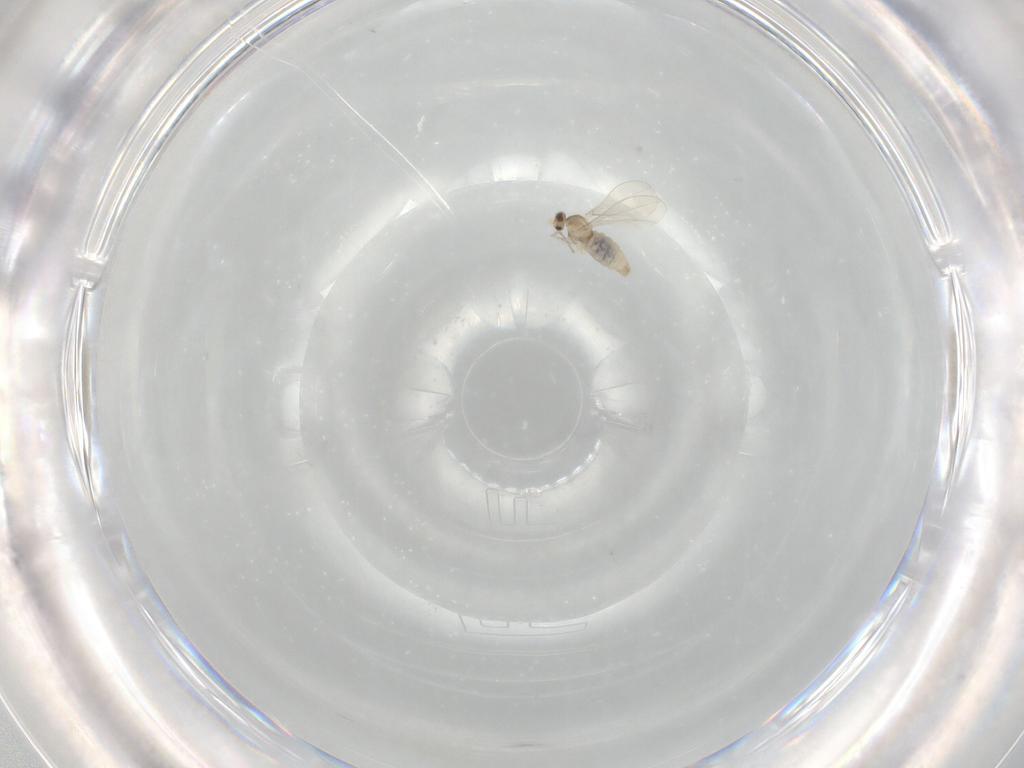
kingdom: Animalia
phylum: Arthropoda
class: Insecta
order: Diptera
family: Cecidomyiidae
